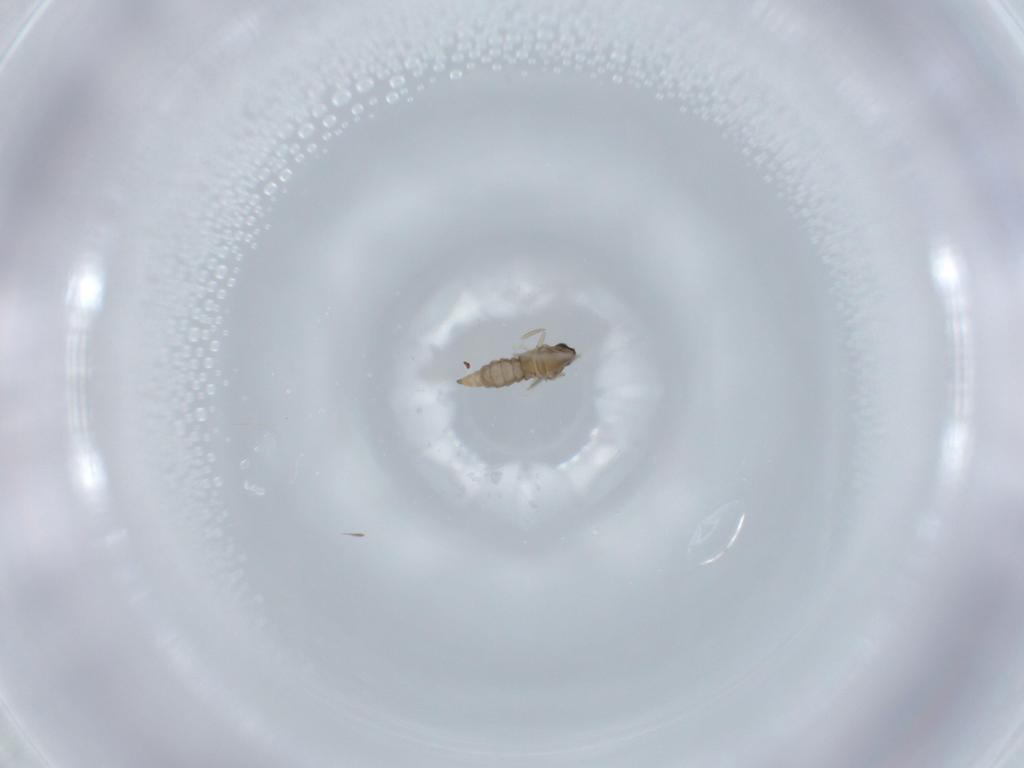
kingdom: Animalia
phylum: Arthropoda
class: Insecta
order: Diptera
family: Cecidomyiidae
